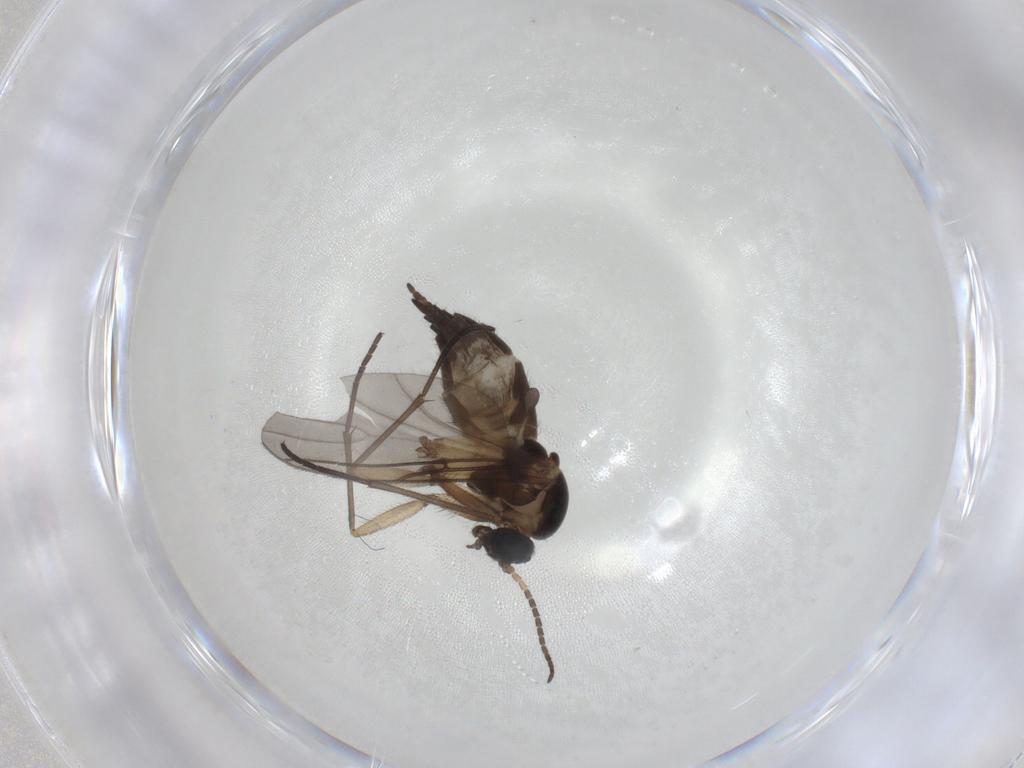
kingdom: Animalia
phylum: Arthropoda
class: Insecta
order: Diptera
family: Sciaridae
